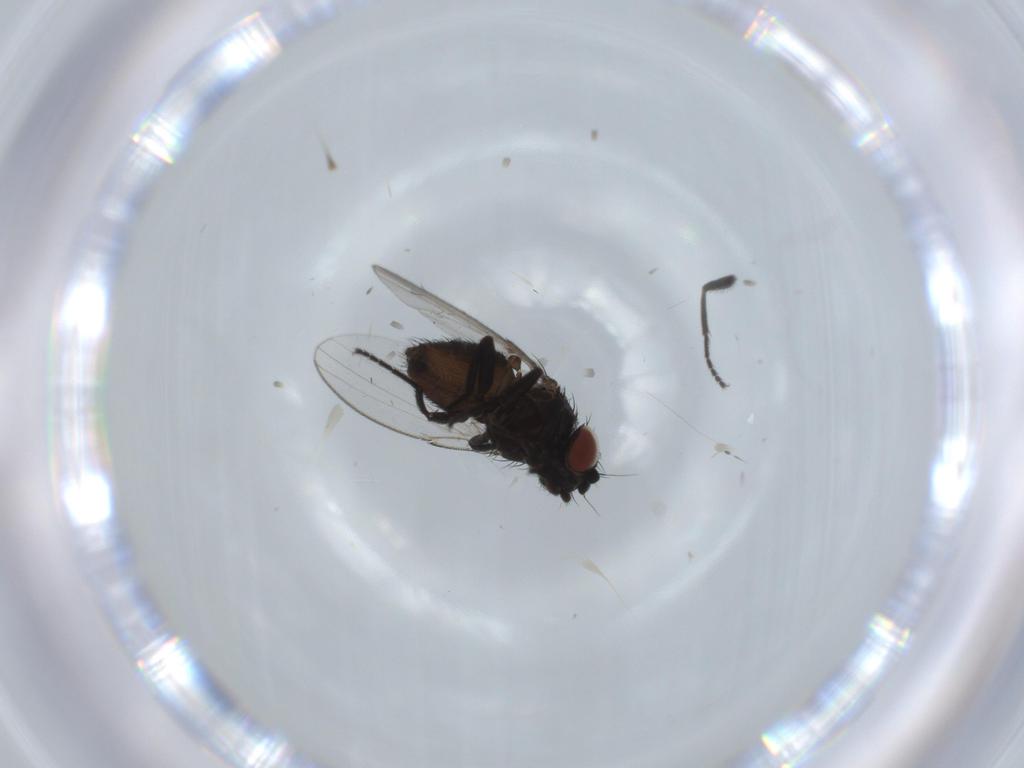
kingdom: Animalia
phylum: Arthropoda
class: Insecta
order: Diptera
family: Milichiidae
